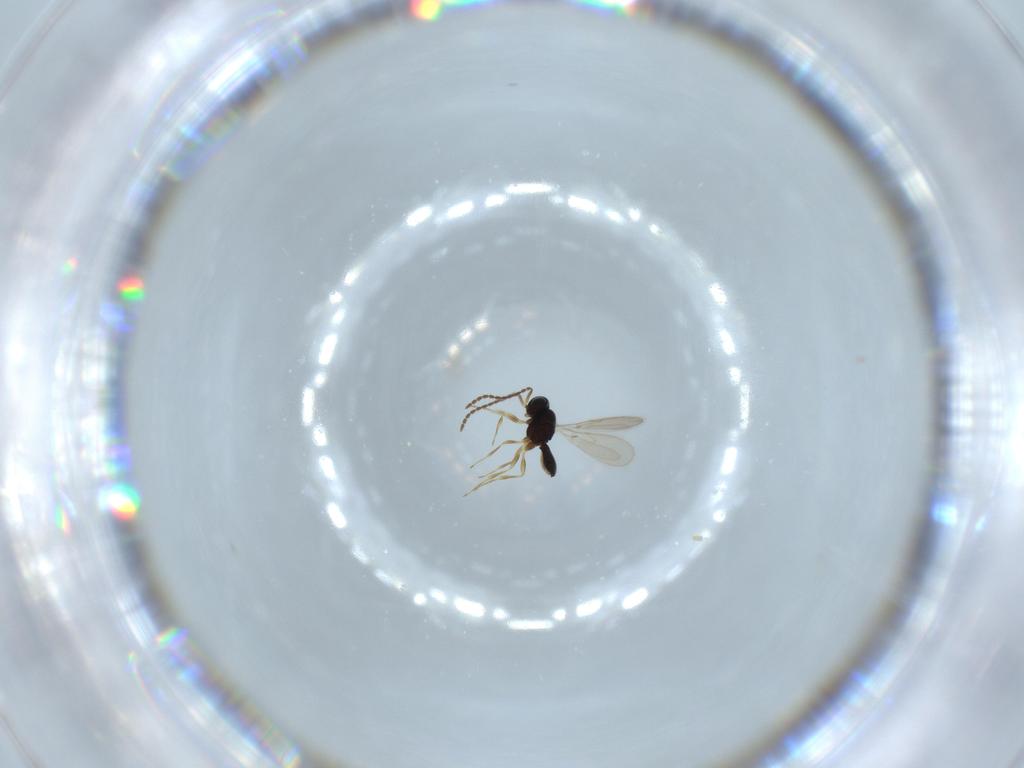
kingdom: Animalia
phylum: Arthropoda
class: Insecta
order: Hymenoptera
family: Scelionidae
